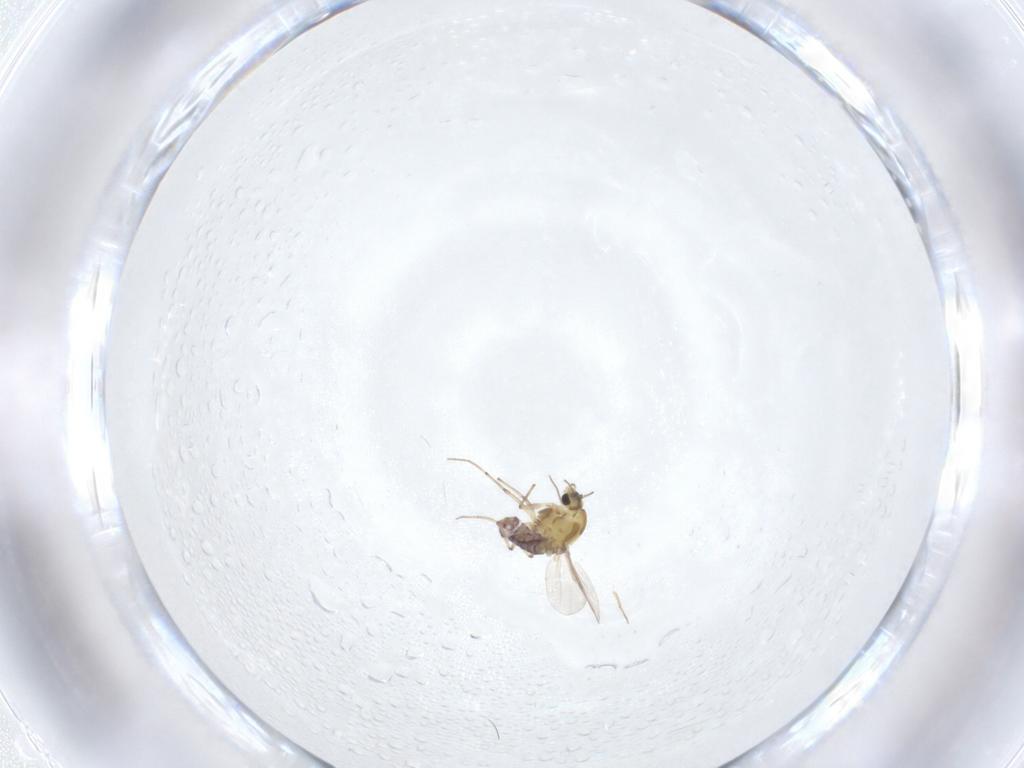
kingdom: Animalia
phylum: Arthropoda
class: Insecta
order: Diptera
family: Chironomidae
